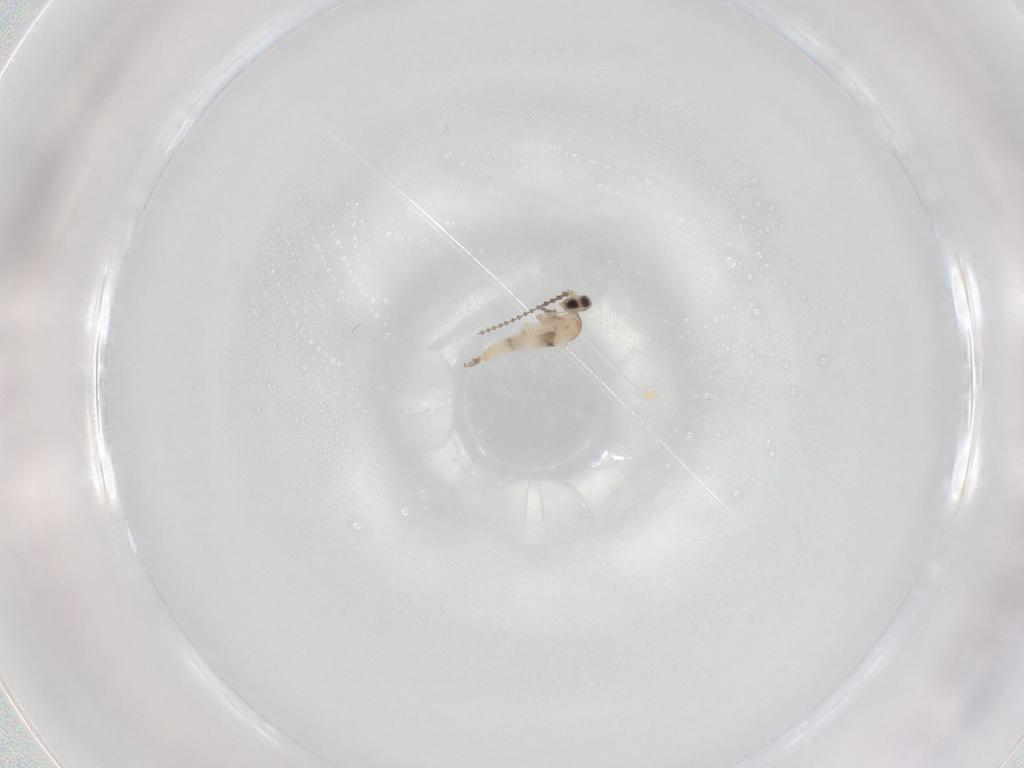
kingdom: Animalia
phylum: Arthropoda
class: Insecta
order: Diptera
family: Cecidomyiidae
